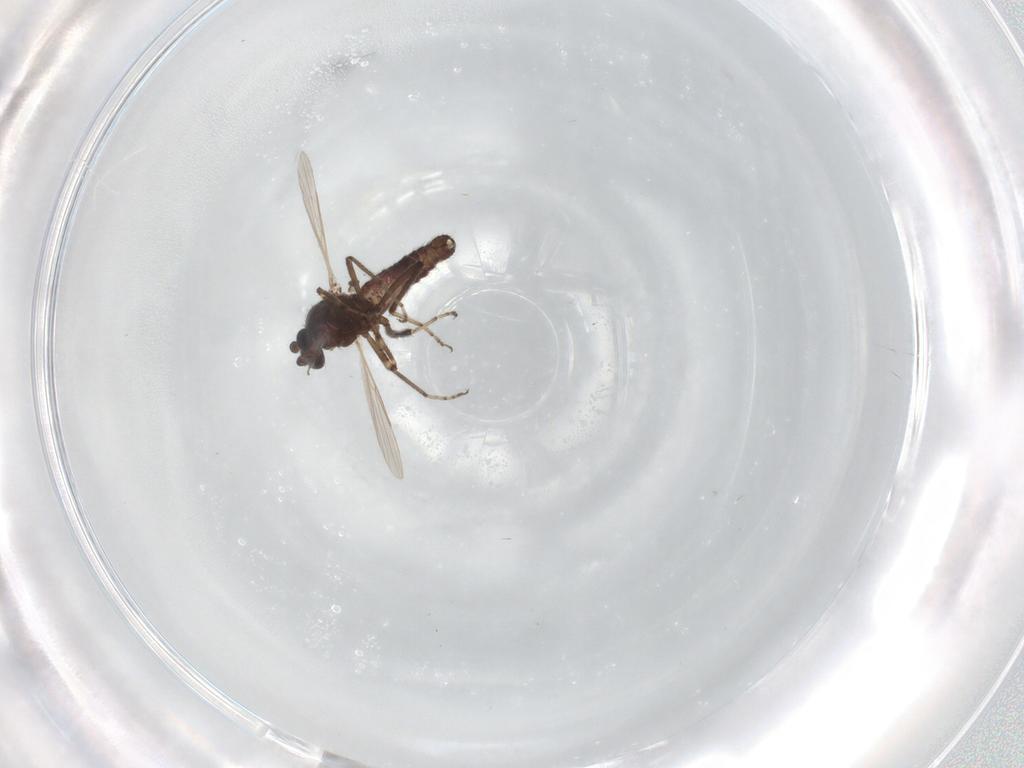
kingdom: Animalia
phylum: Arthropoda
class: Insecta
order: Diptera
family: Ceratopogonidae
